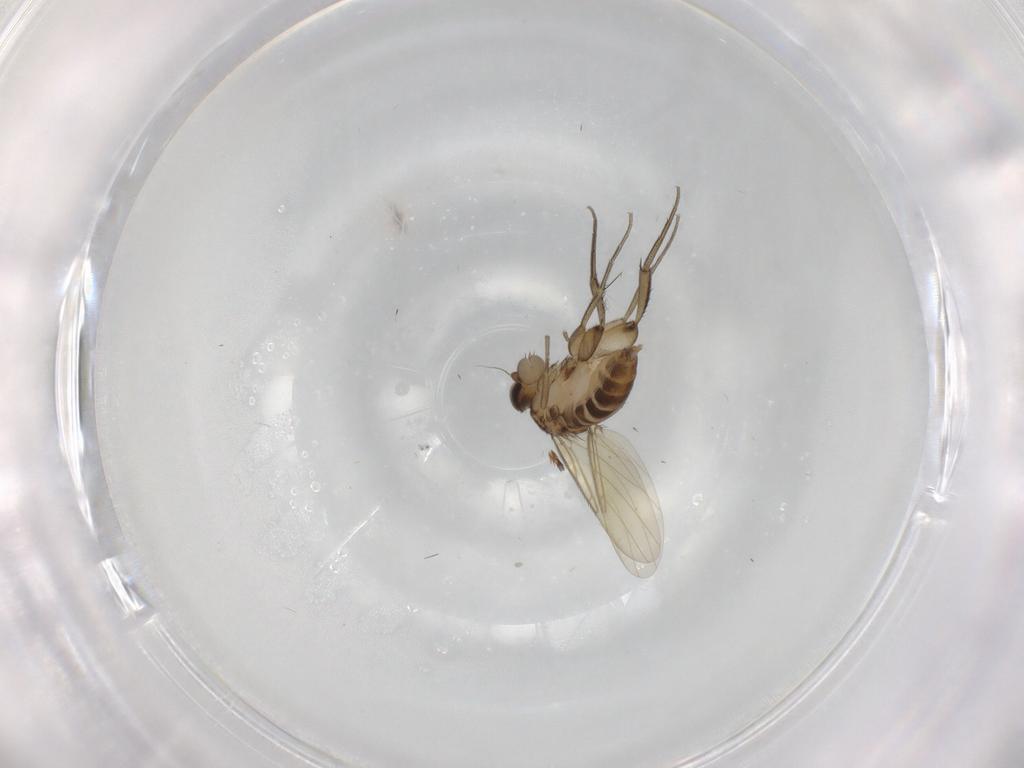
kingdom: Animalia
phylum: Arthropoda
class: Insecta
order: Diptera
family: Phoridae
